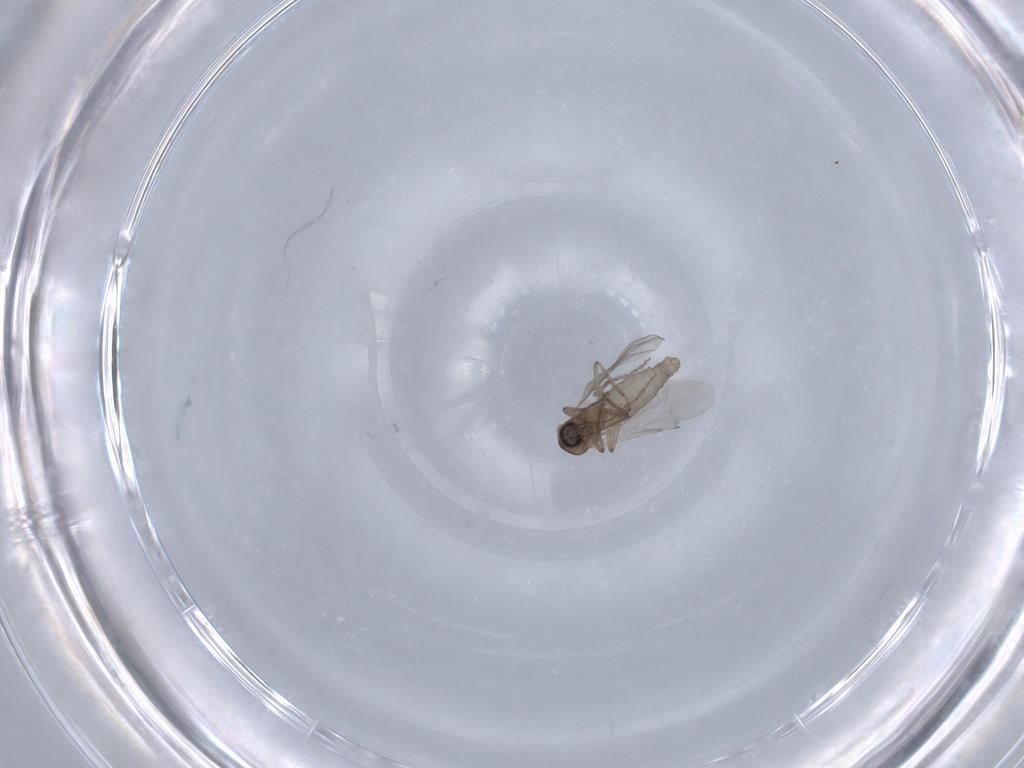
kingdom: Animalia
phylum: Arthropoda
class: Insecta
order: Diptera
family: Ceratopogonidae
